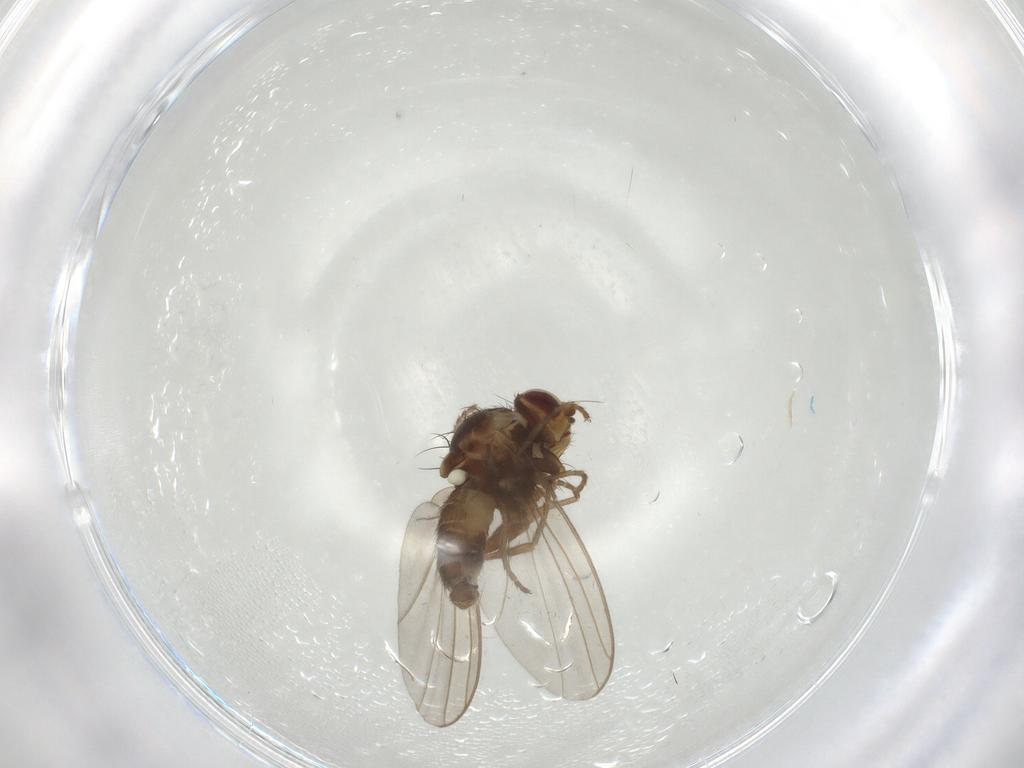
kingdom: Animalia
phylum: Arthropoda
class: Insecta
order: Diptera
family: Agromyzidae
